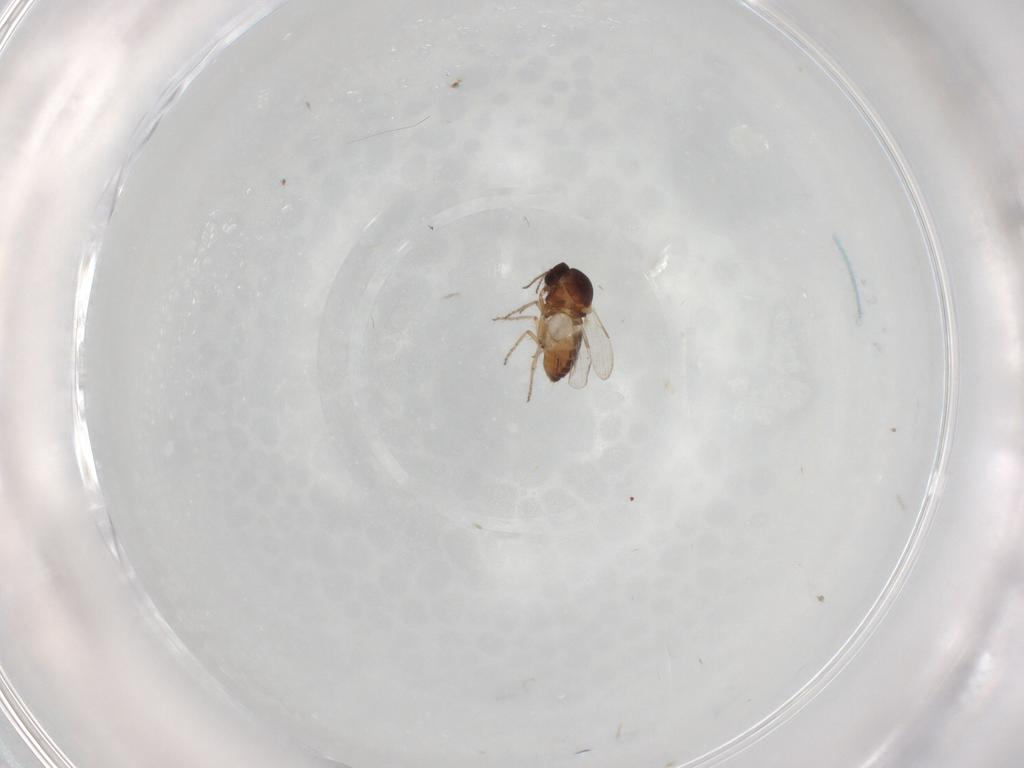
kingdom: Animalia
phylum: Arthropoda
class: Insecta
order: Diptera
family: Ceratopogonidae
